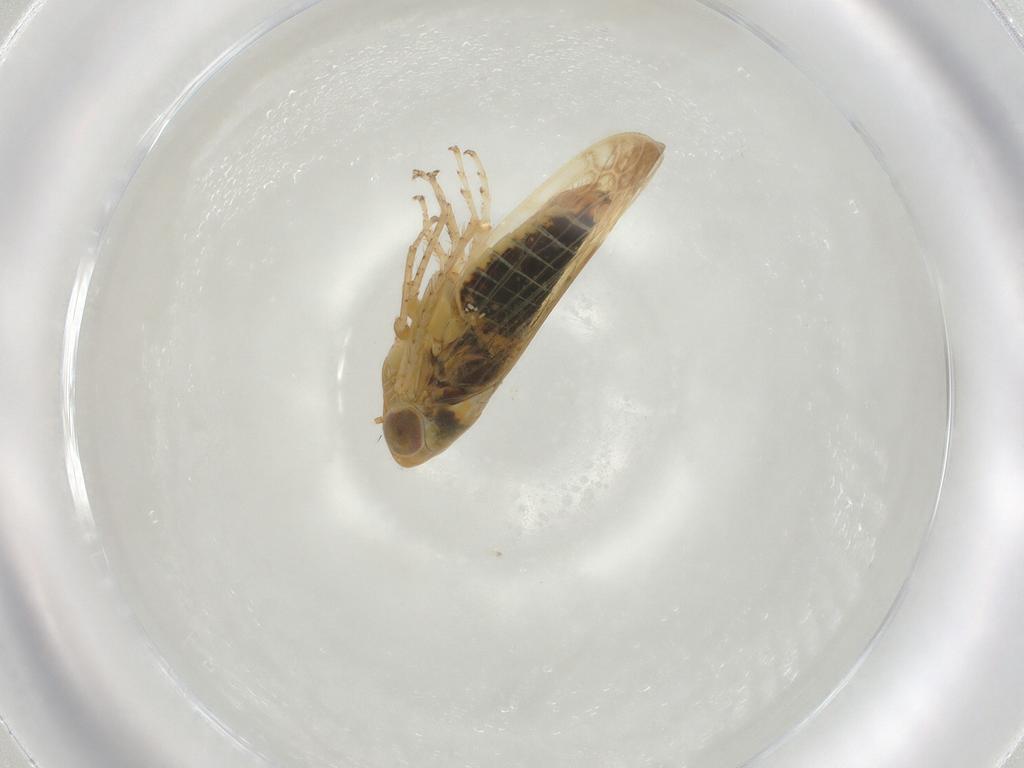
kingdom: Animalia
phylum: Arthropoda
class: Insecta
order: Hemiptera
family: Cicadellidae
